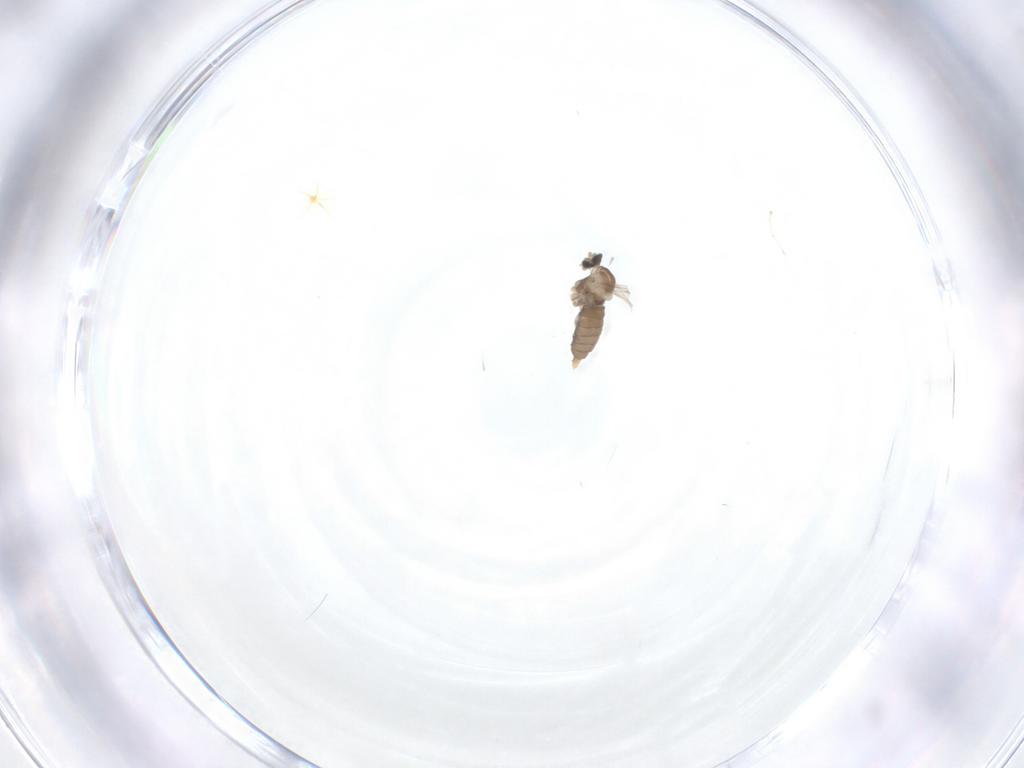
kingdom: Animalia
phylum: Arthropoda
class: Insecta
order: Diptera
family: Cecidomyiidae
